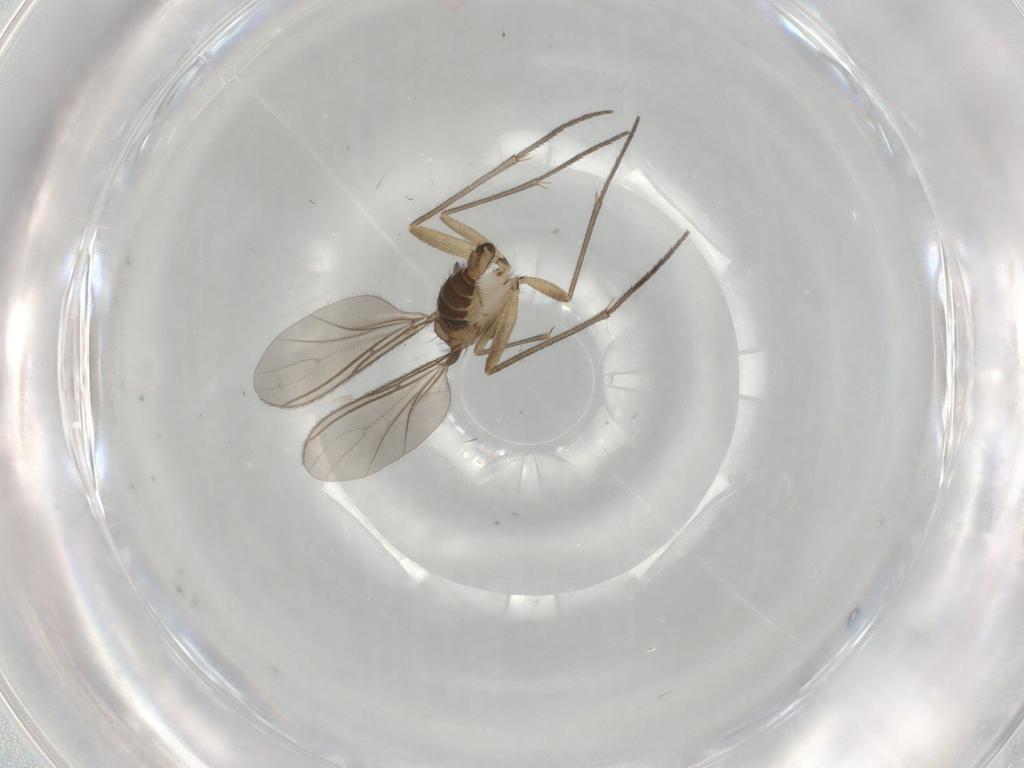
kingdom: Animalia
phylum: Arthropoda
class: Insecta
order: Diptera
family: Sciaridae
